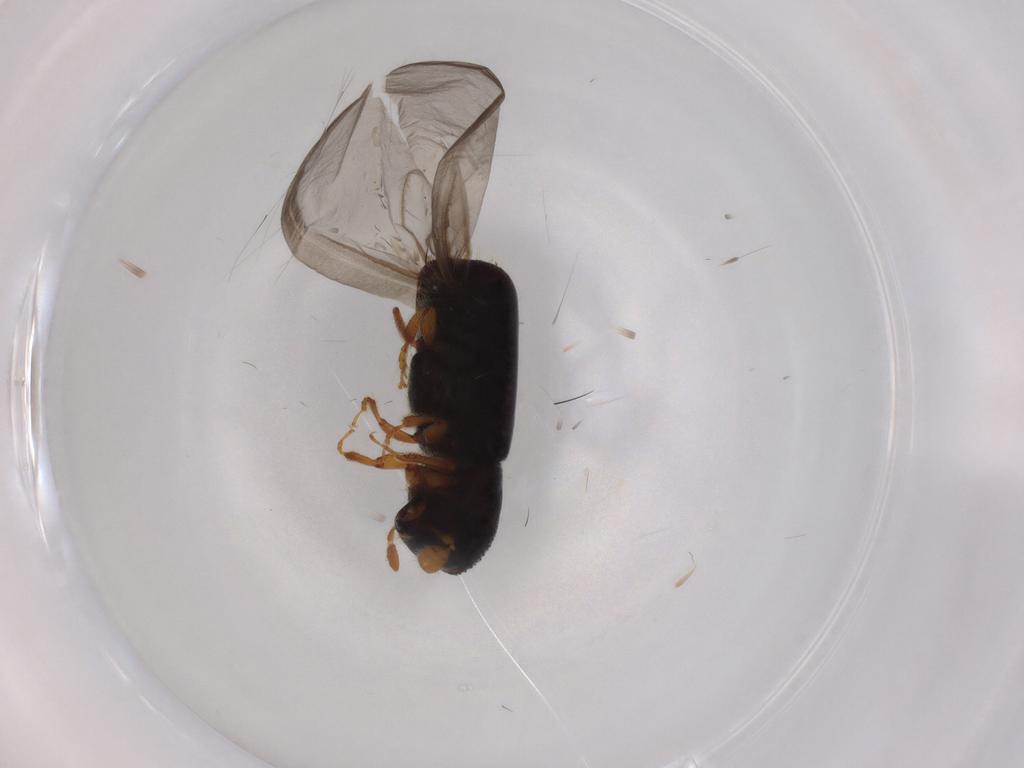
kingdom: Animalia
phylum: Arthropoda
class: Insecta
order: Coleoptera
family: Curculionidae
